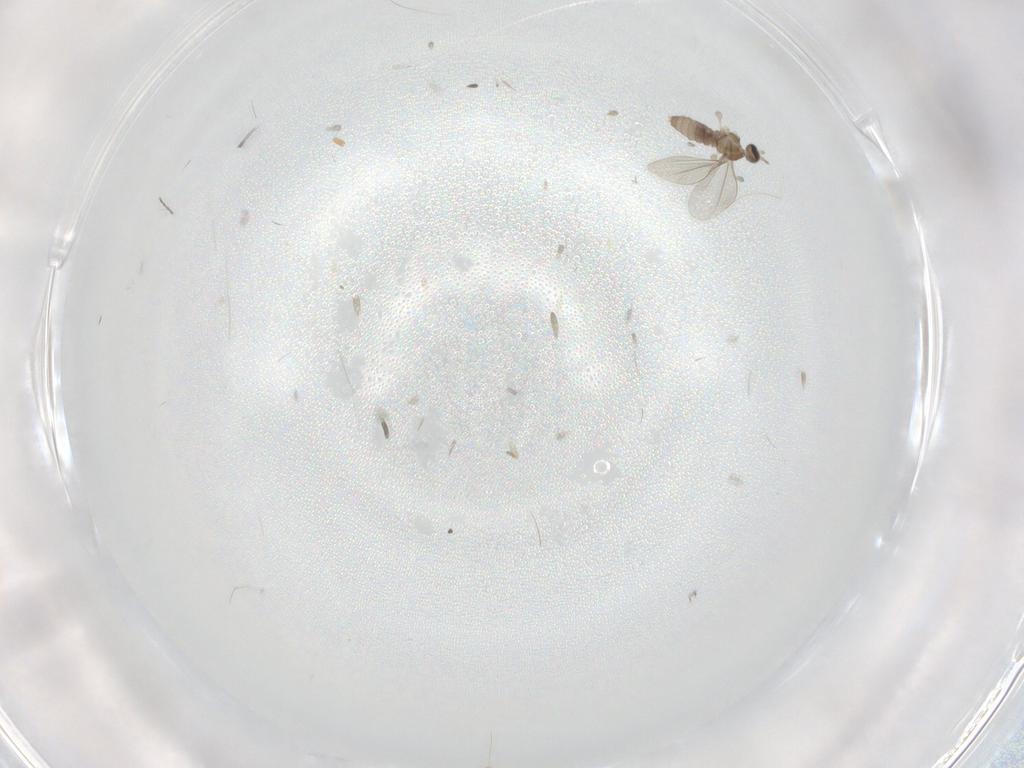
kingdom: Animalia
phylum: Arthropoda
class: Insecta
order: Diptera
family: Cecidomyiidae
